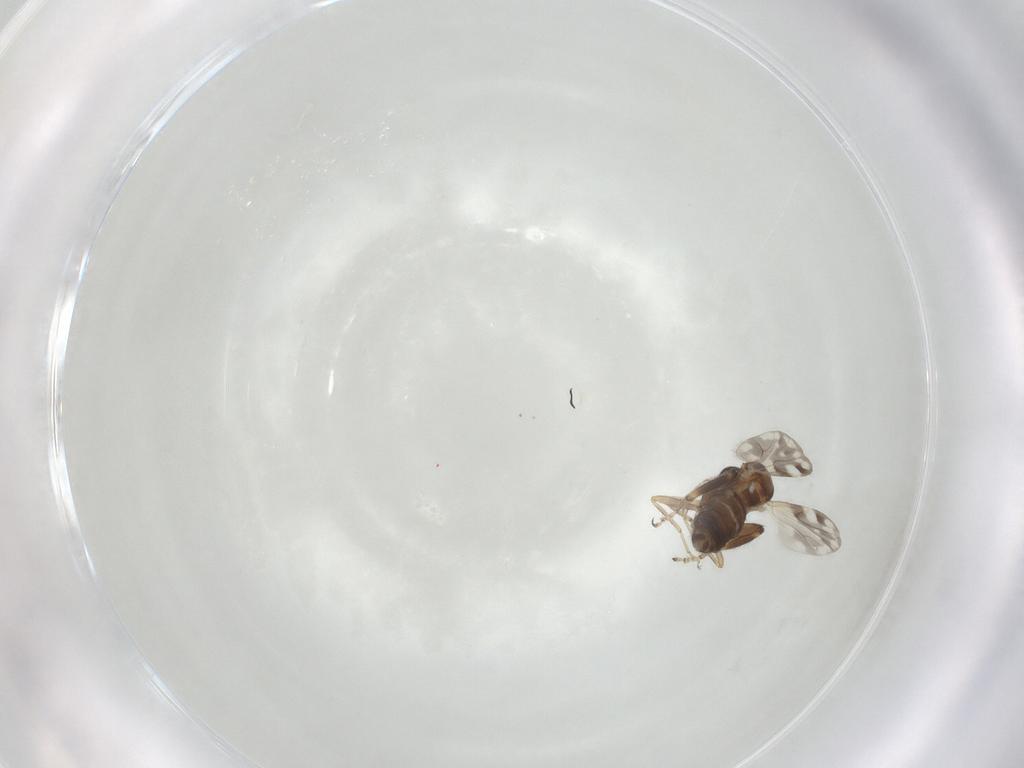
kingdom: Animalia
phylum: Arthropoda
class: Insecta
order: Diptera
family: Ceratopogonidae
